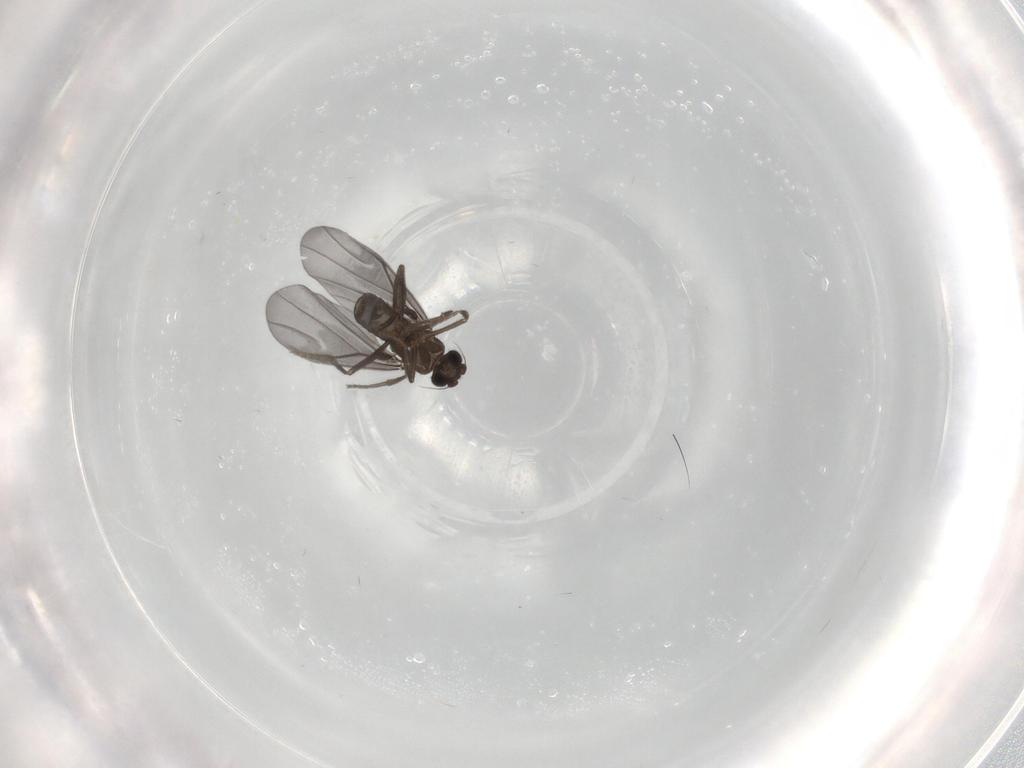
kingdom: Animalia
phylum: Arthropoda
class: Insecta
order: Diptera
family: Phoridae
